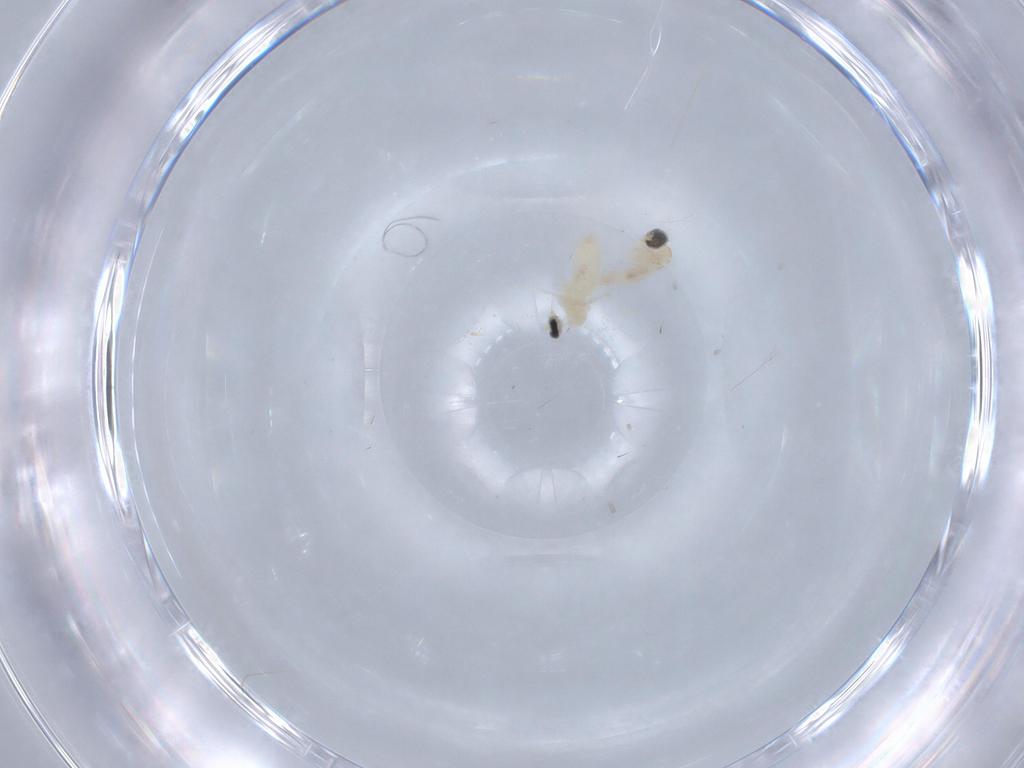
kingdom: Animalia
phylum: Arthropoda
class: Insecta
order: Diptera
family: Cecidomyiidae
